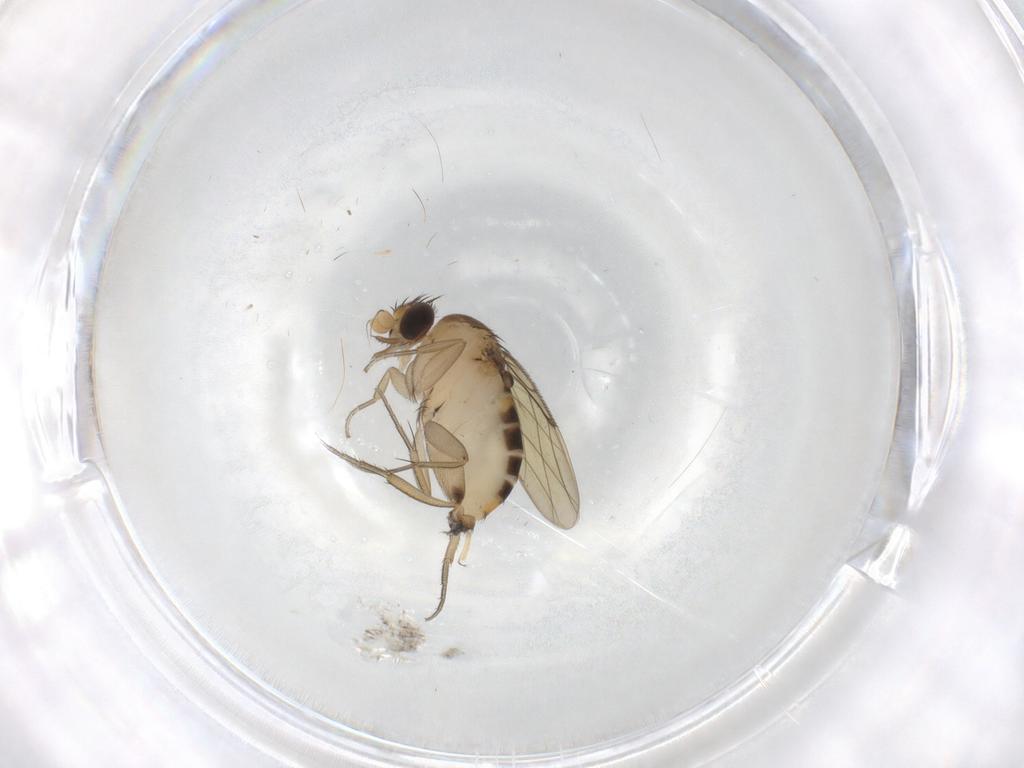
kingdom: Animalia
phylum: Arthropoda
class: Insecta
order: Diptera
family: Phoridae
